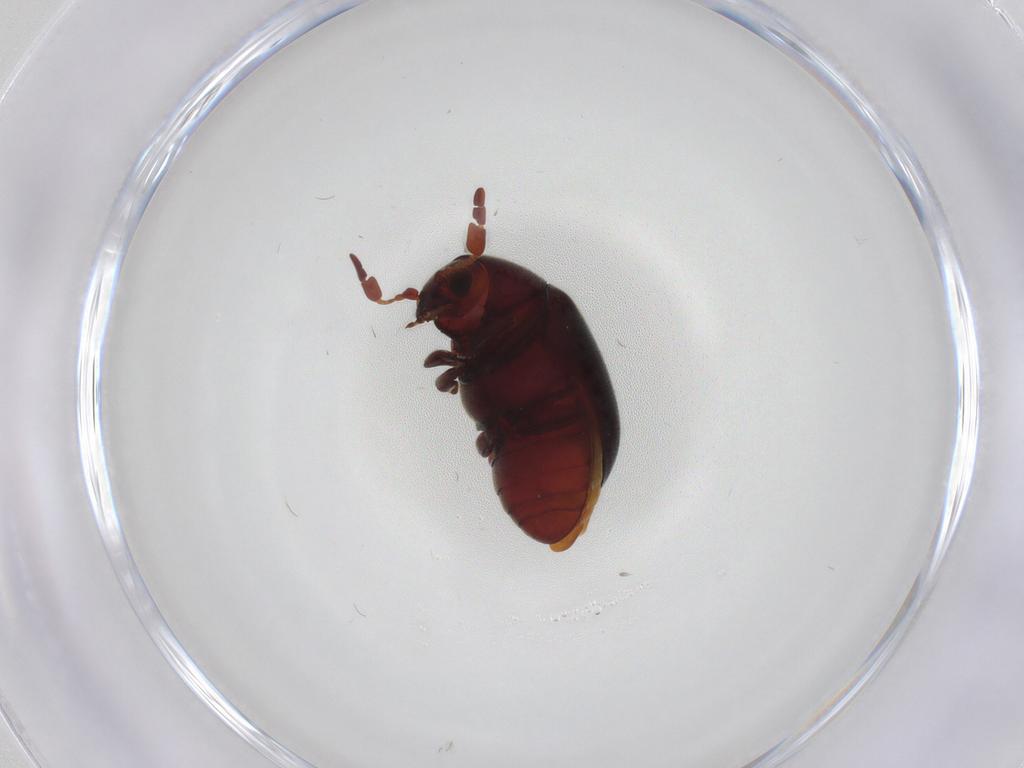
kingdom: Animalia
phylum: Arthropoda
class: Insecta
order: Coleoptera
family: Ptinidae
